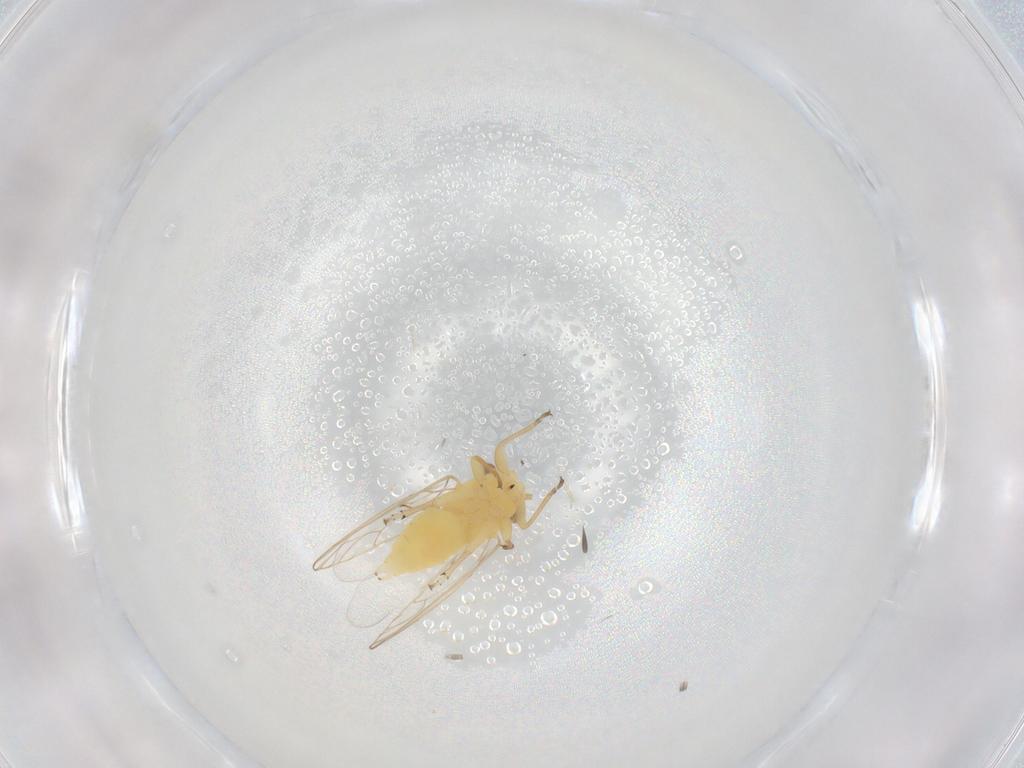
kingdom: Animalia
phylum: Arthropoda
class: Insecta
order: Hemiptera
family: Psyllidae
